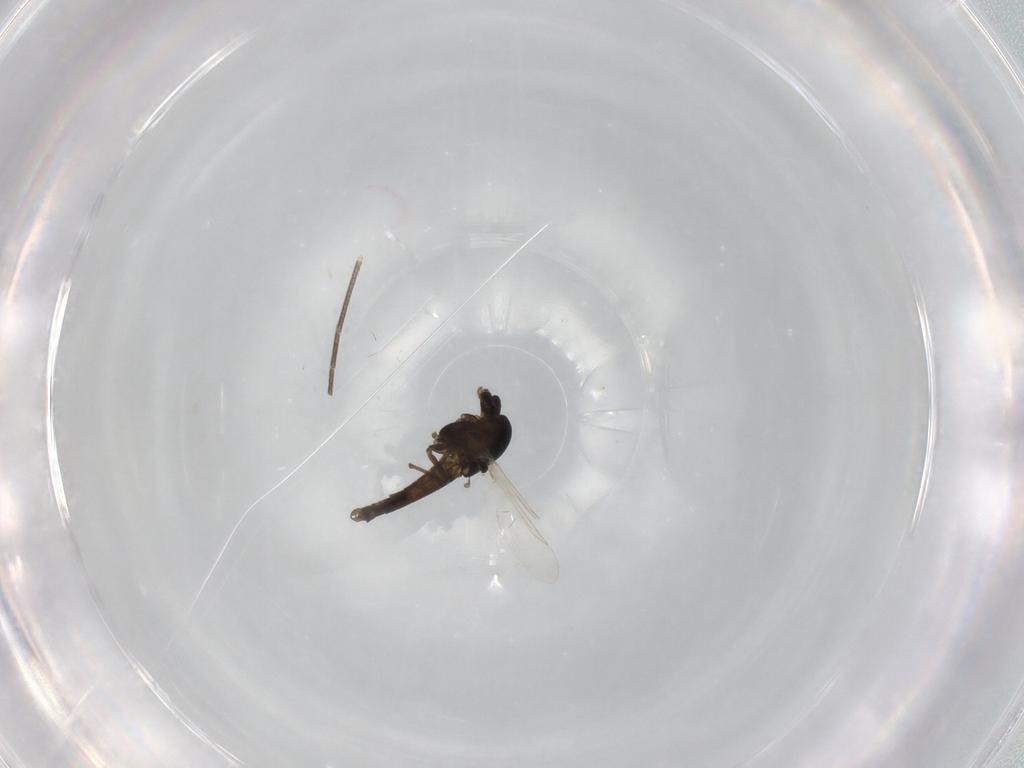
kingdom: Animalia
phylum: Arthropoda
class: Insecta
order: Diptera
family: Chironomidae
